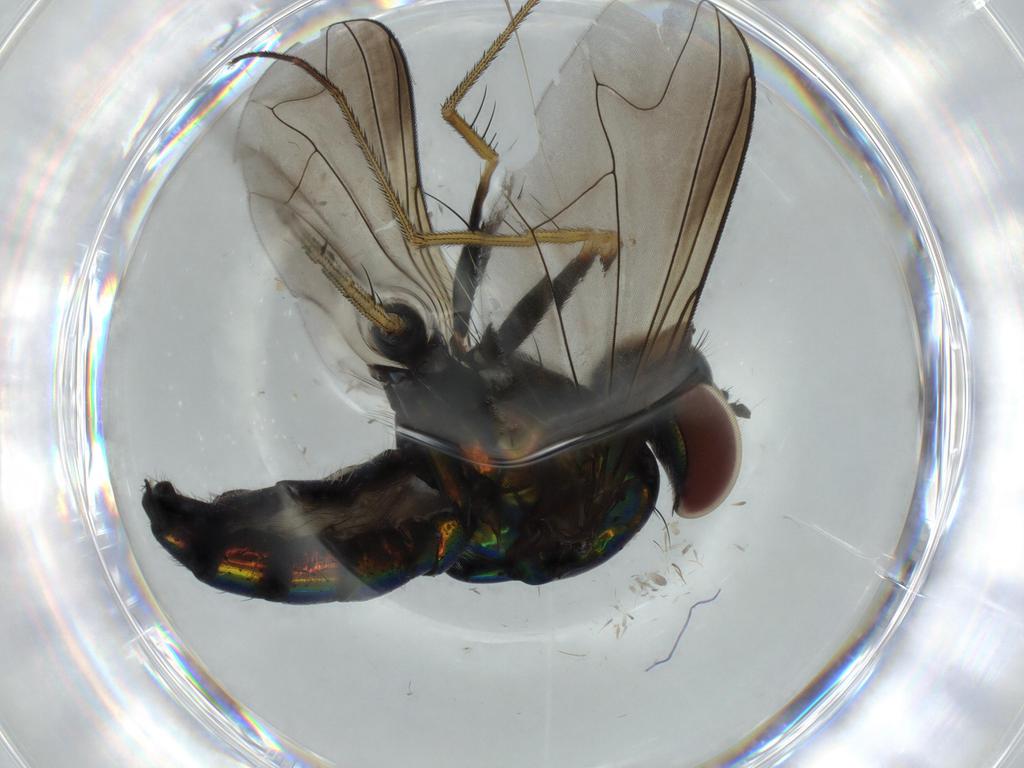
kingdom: Animalia
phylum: Arthropoda
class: Insecta
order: Diptera
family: Dolichopodidae
